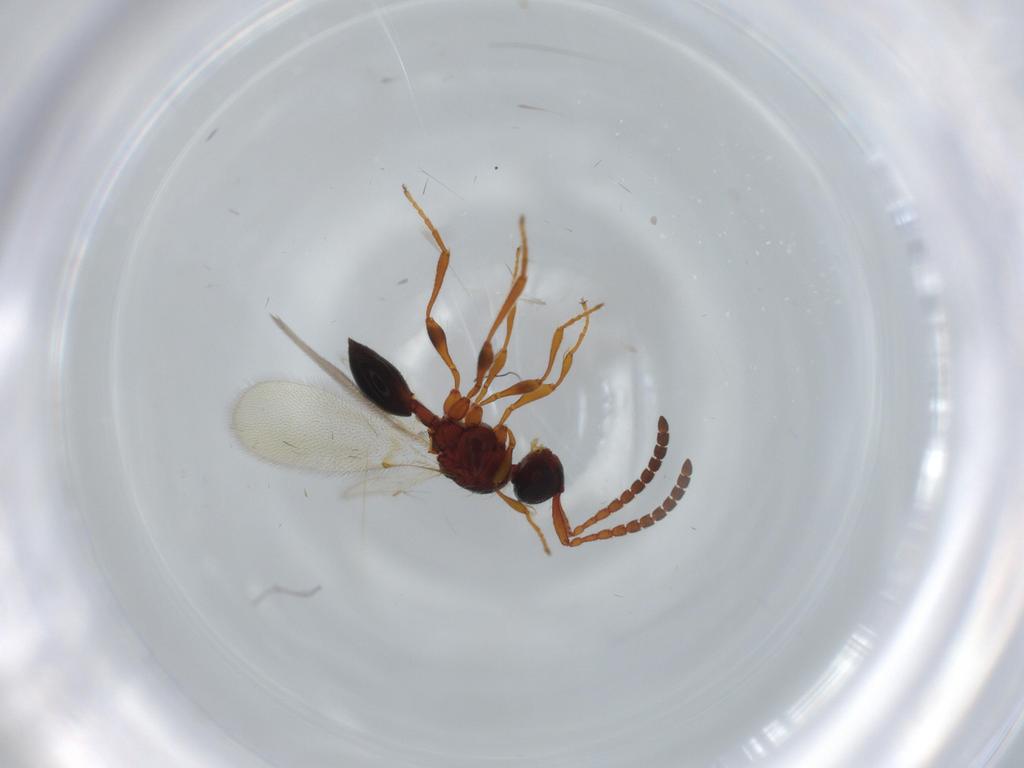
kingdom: Animalia
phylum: Arthropoda
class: Insecta
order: Hymenoptera
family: Diapriidae
